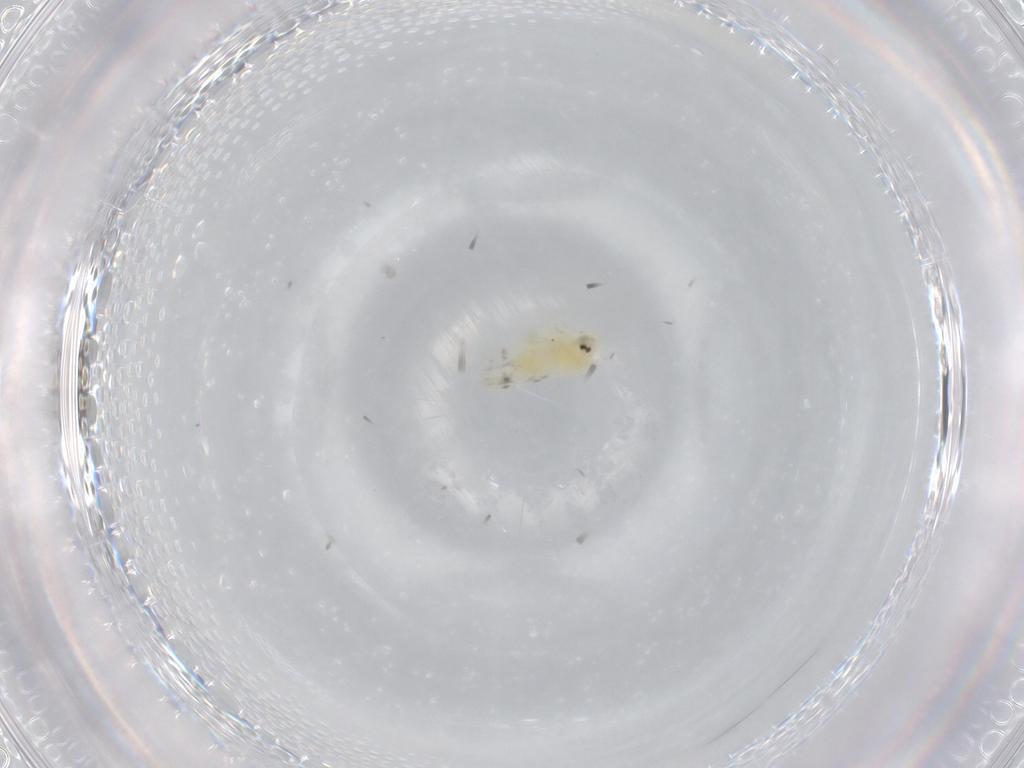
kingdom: Animalia
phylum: Arthropoda
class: Insecta
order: Hemiptera
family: Aleyrodidae
